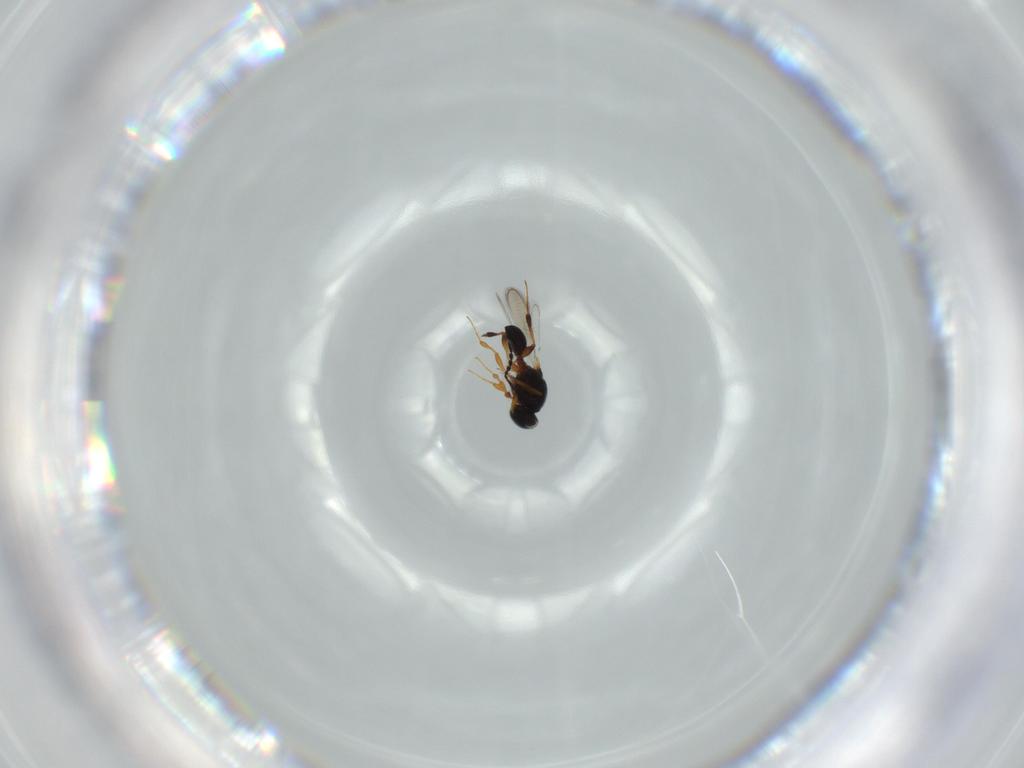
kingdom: Animalia
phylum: Arthropoda
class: Insecta
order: Hymenoptera
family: Platygastridae
